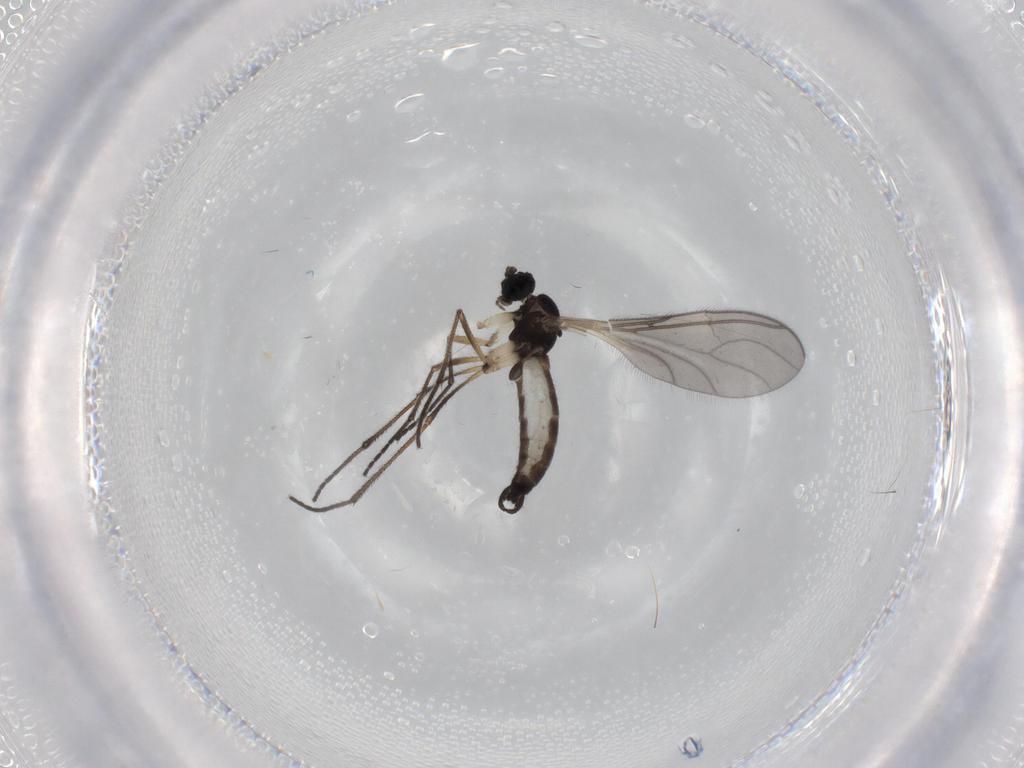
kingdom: Animalia
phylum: Arthropoda
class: Insecta
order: Diptera
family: Sciaridae
